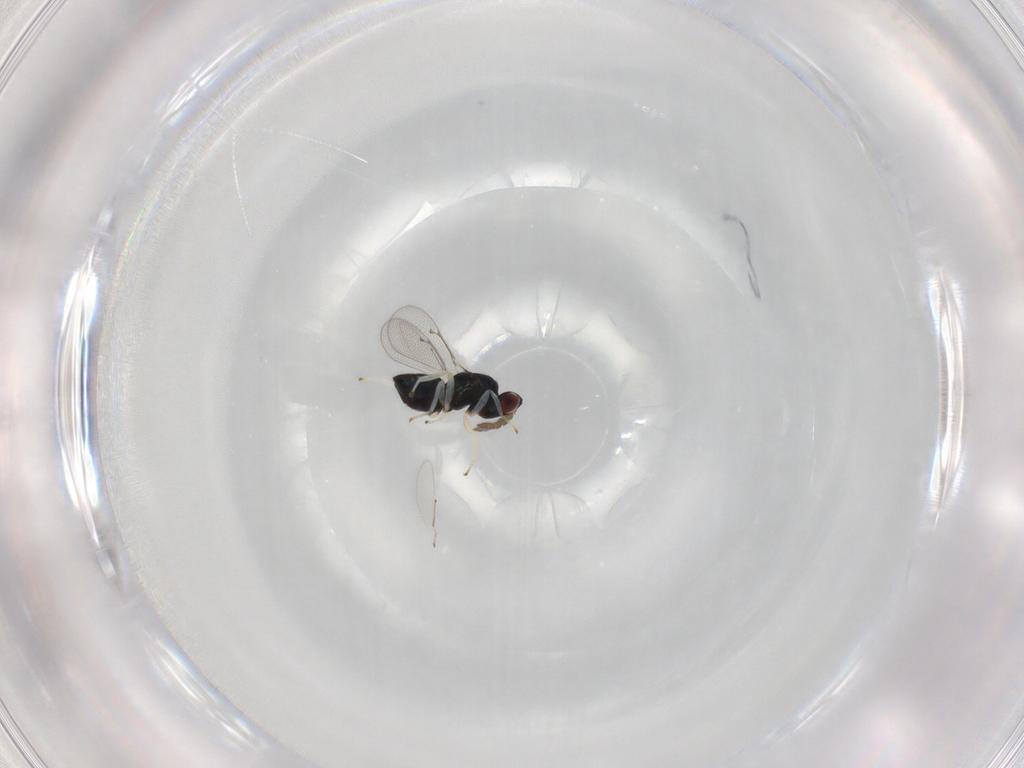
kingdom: Animalia
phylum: Arthropoda
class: Insecta
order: Hymenoptera
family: Eulophidae
